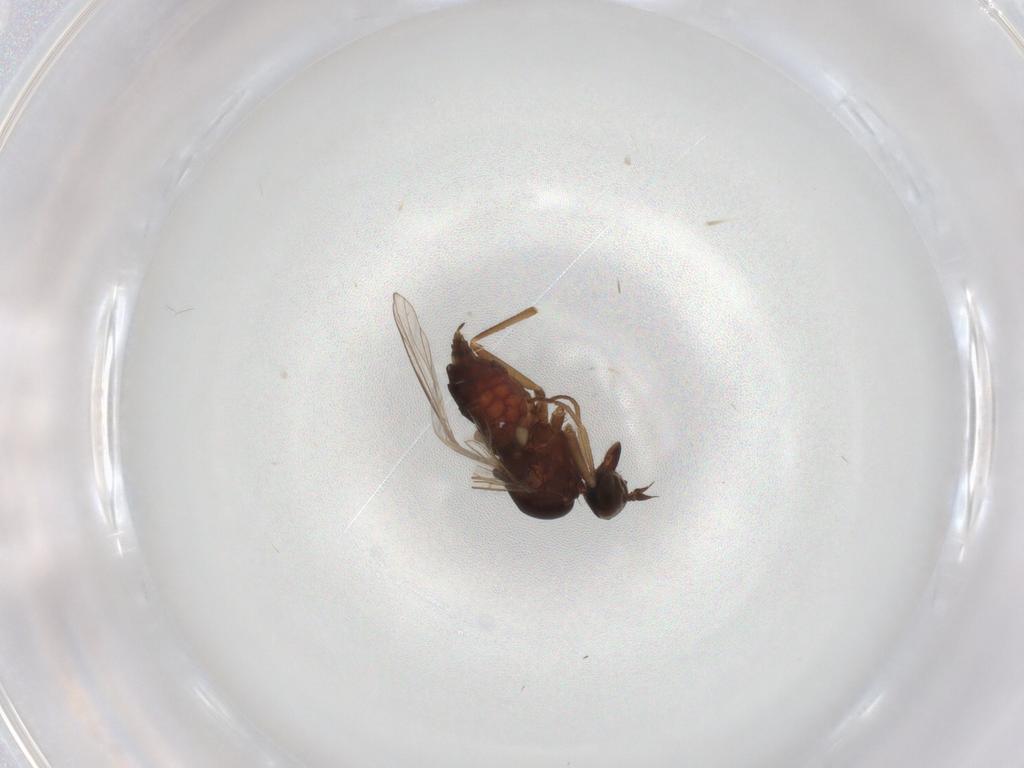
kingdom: Animalia
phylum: Arthropoda
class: Insecta
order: Diptera
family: Empididae
